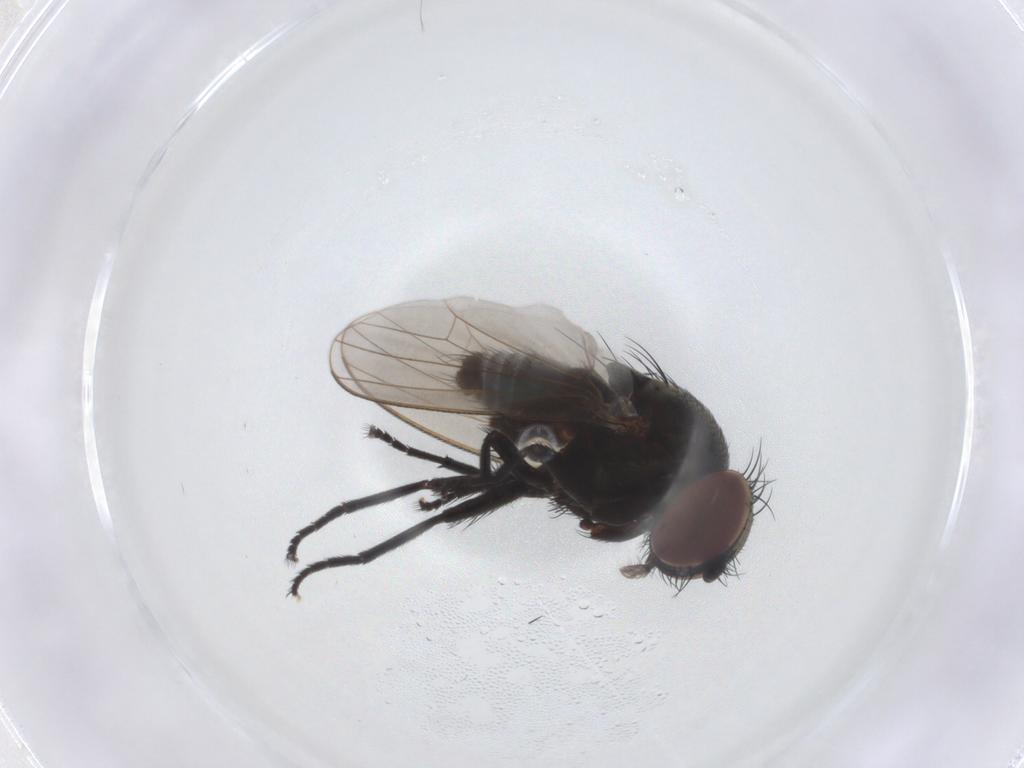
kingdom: Animalia
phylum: Arthropoda
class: Insecta
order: Diptera
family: Milichiidae
